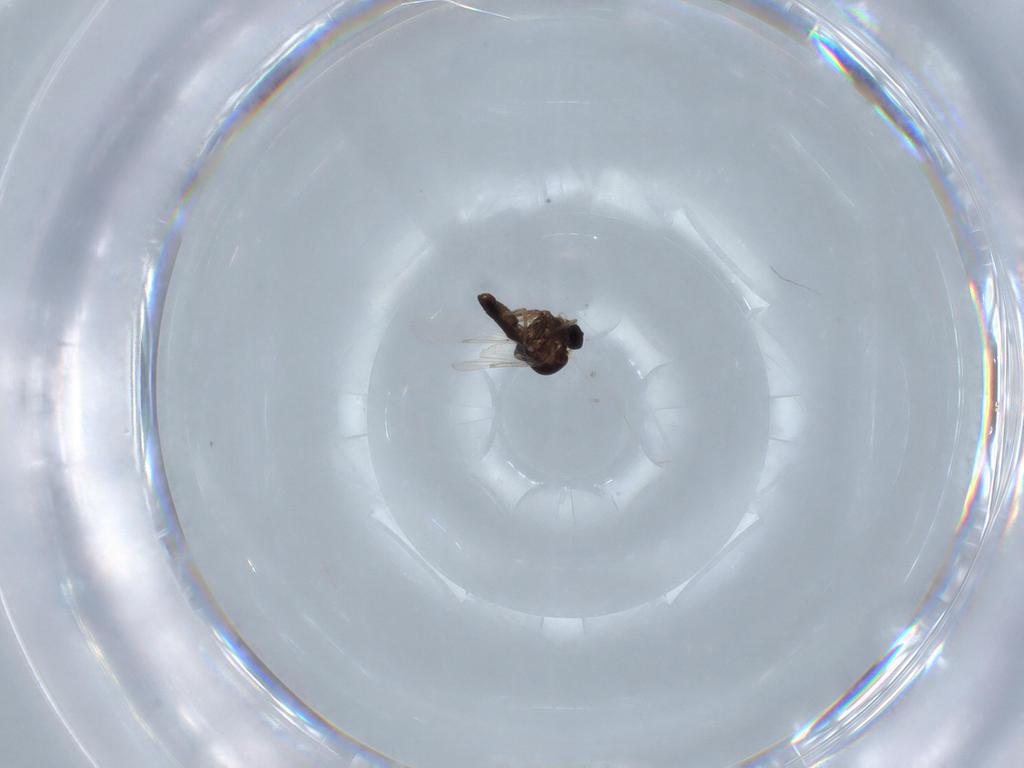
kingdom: Animalia
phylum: Arthropoda
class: Insecta
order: Diptera
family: Ceratopogonidae
